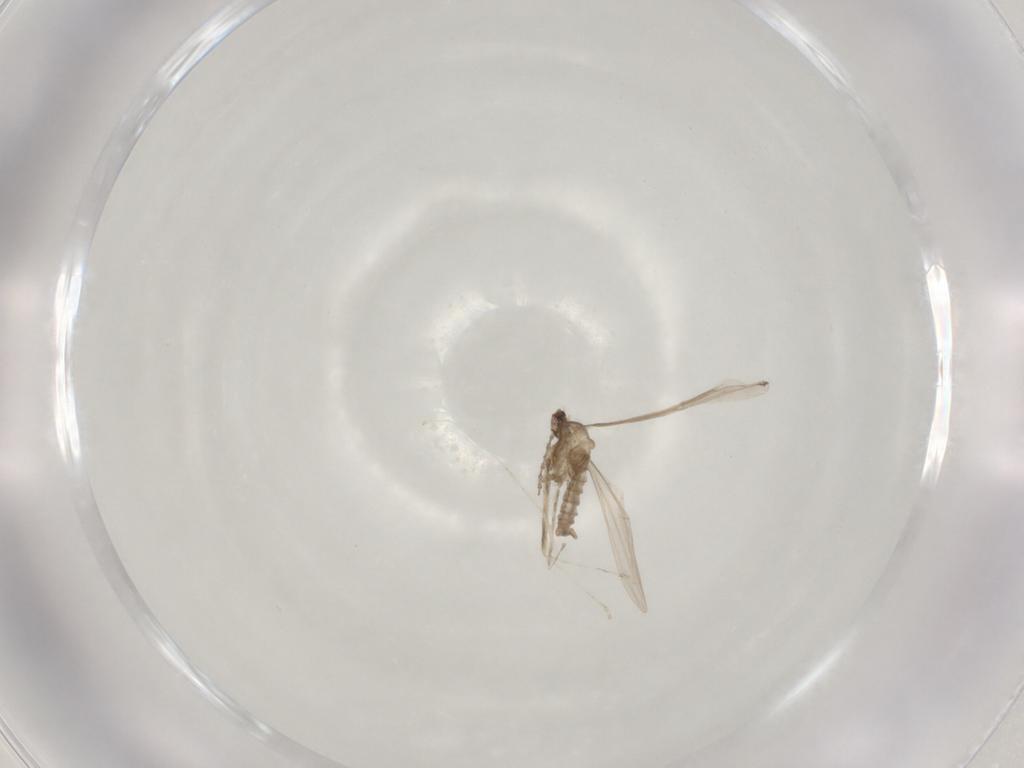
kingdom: Animalia
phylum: Arthropoda
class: Insecta
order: Diptera
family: Cecidomyiidae
